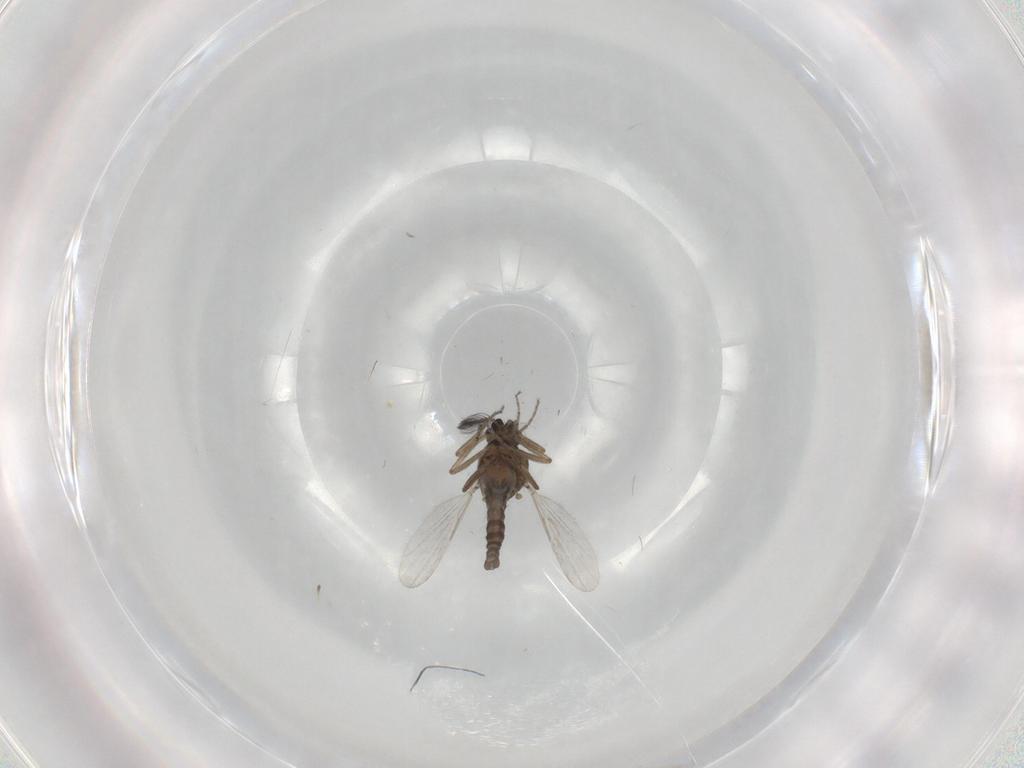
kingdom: Animalia
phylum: Arthropoda
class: Insecta
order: Diptera
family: Ceratopogonidae
